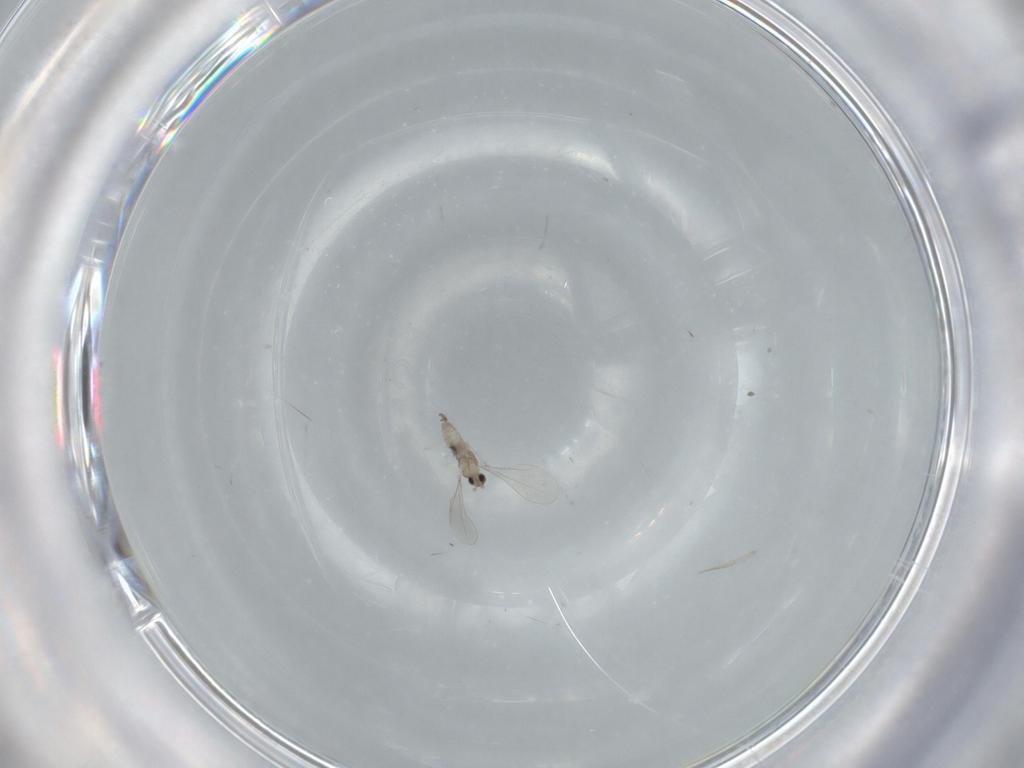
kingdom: Animalia
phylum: Arthropoda
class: Insecta
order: Diptera
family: Cecidomyiidae
